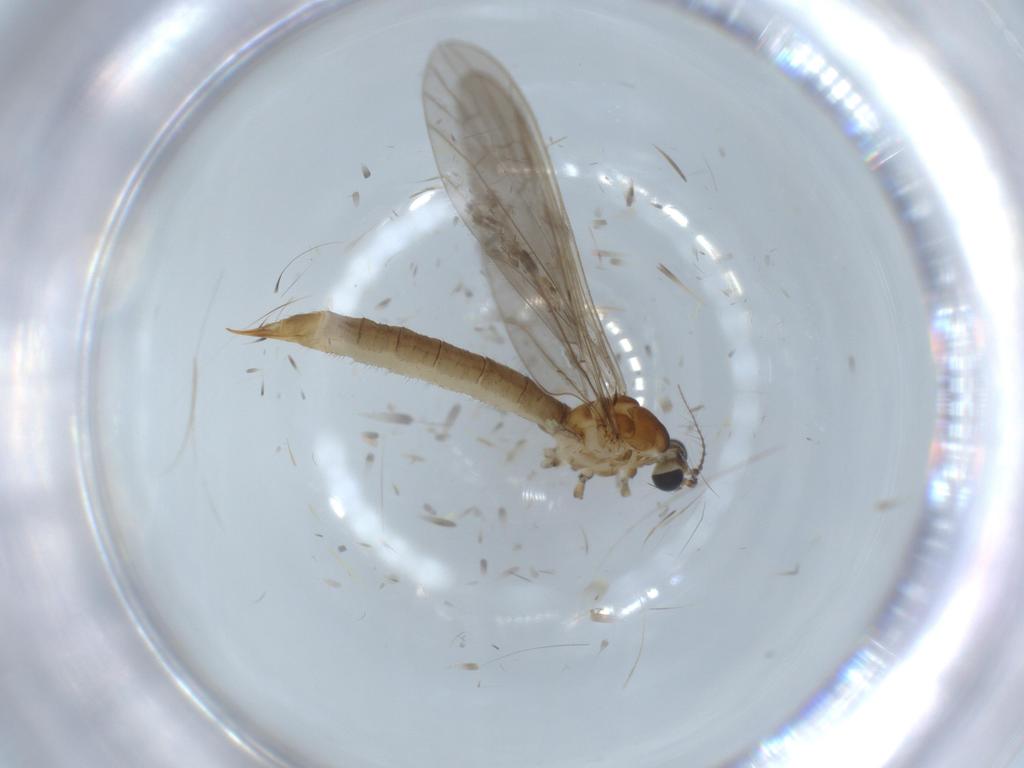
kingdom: Animalia
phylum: Arthropoda
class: Insecta
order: Diptera
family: Limoniidae
